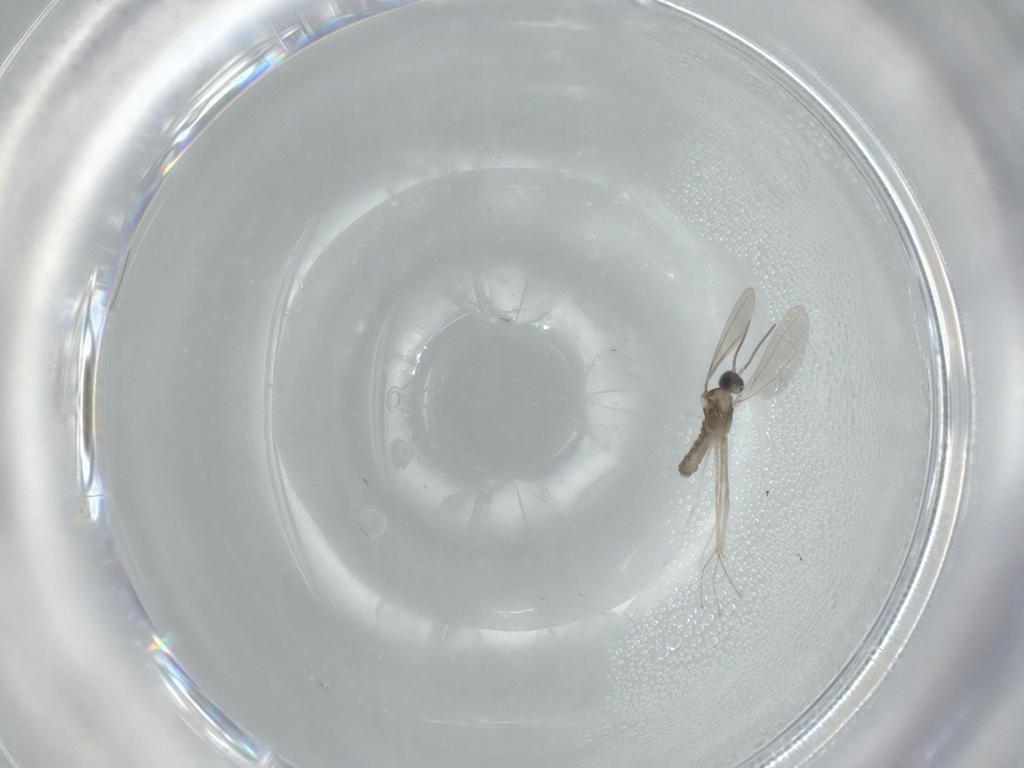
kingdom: Animalia
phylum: Arthropoda
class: Insecta
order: Diptera
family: Cecidomyiidae
